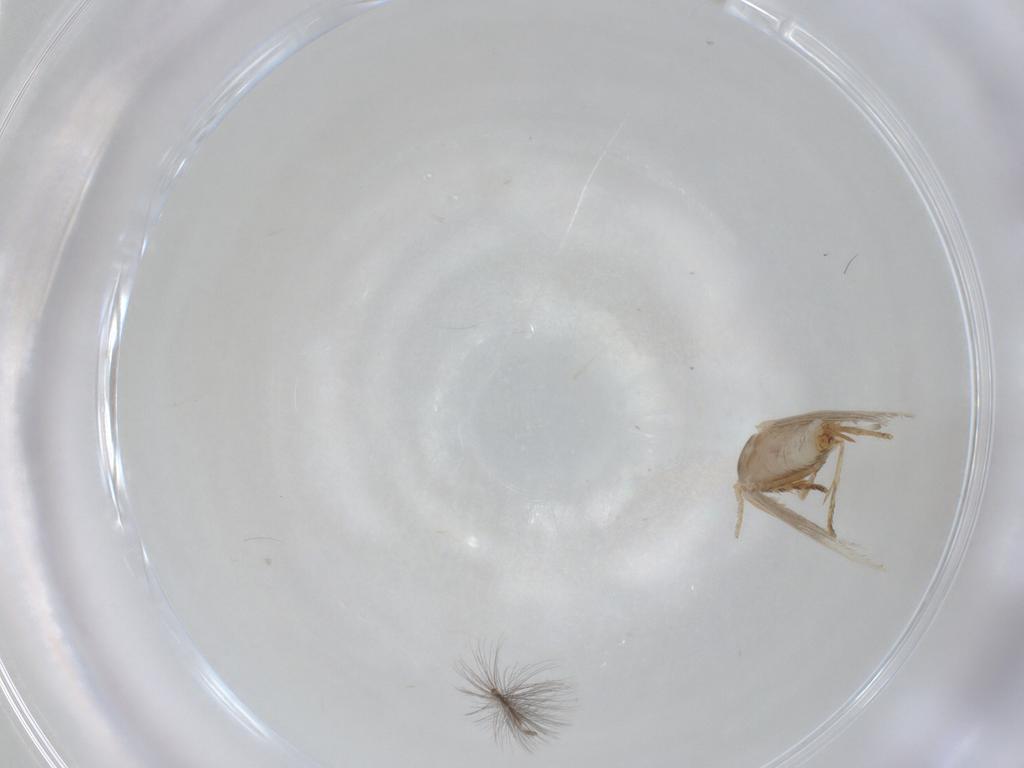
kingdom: Animalia
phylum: Arthropoda
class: Insecta
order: Lepidoptera
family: Nepticulidae
